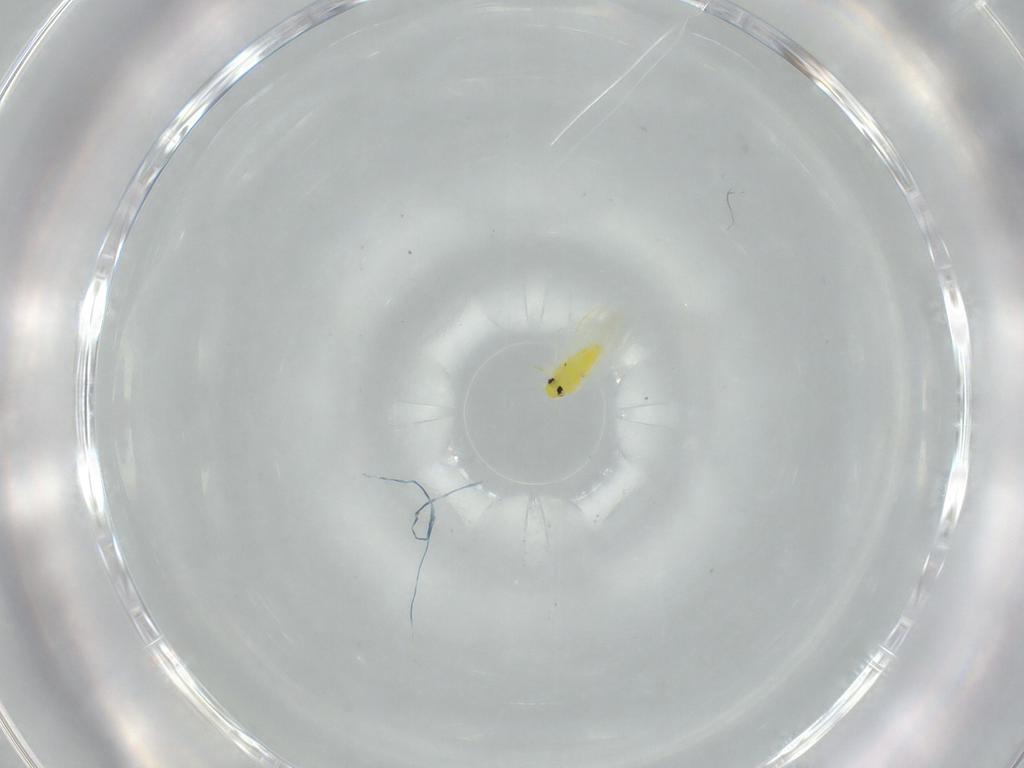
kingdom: Animalia
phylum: Arthropoda
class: Insecta
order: Hemiptera
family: Aleyrodidae
